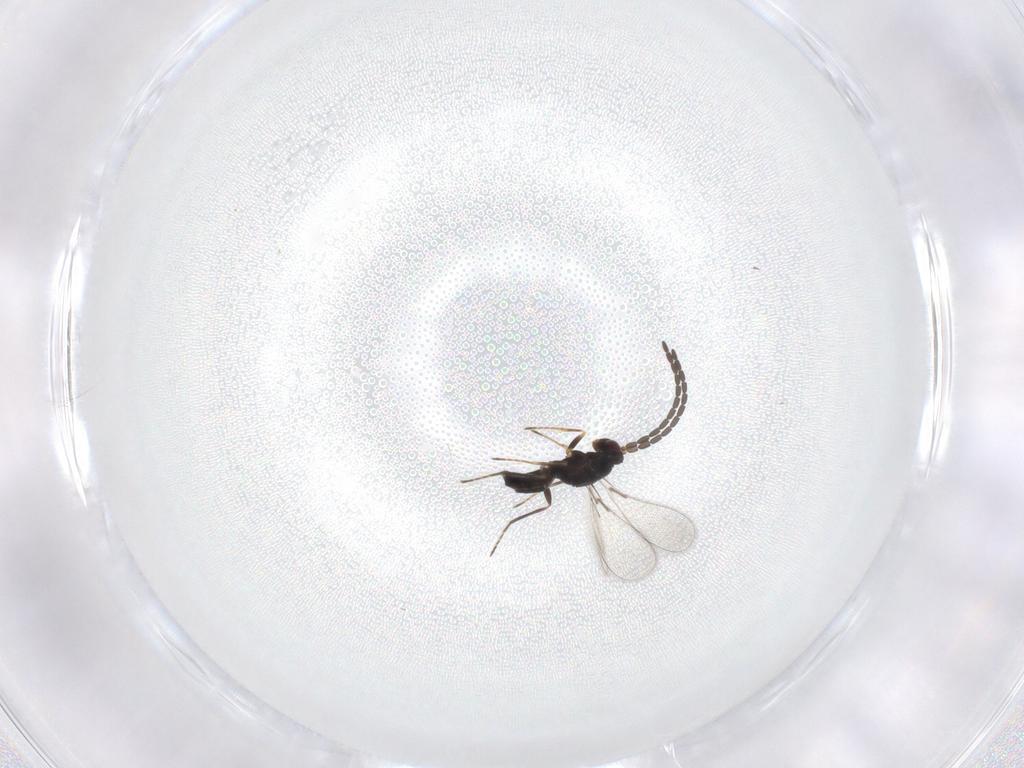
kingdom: Animalia
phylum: Arthropoda
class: Insecta
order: Hymenoptera
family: Mymaridae
